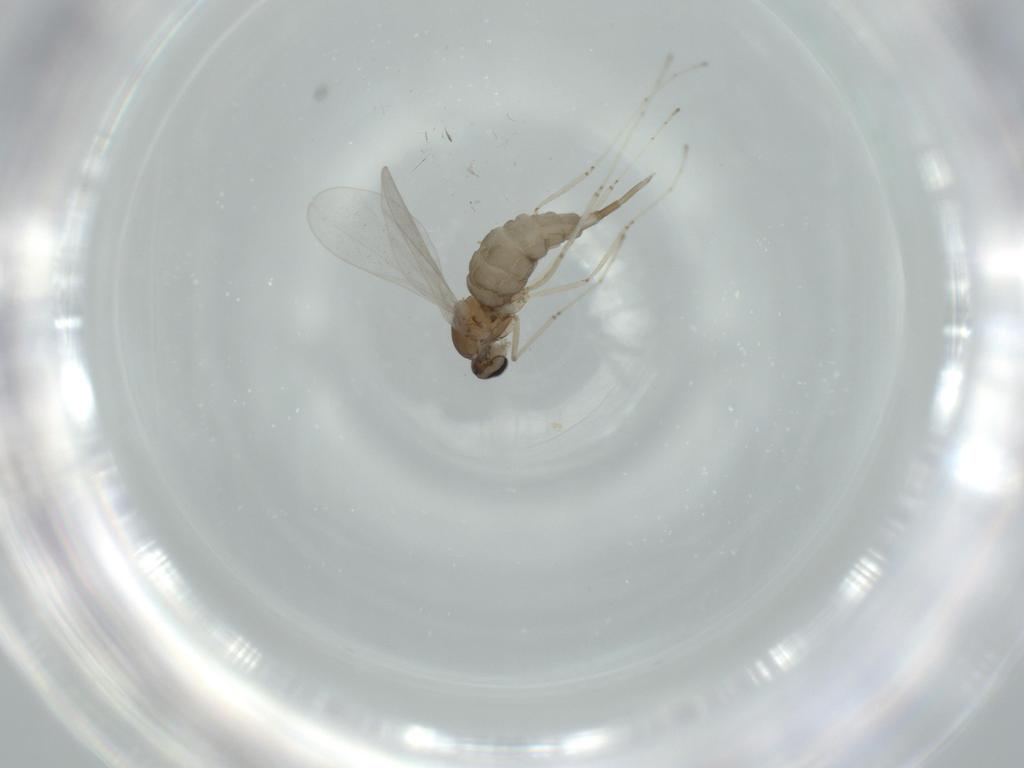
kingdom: Animalia
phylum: Arthropoda
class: Insecta
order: Diptera
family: Cecidomyiidae
